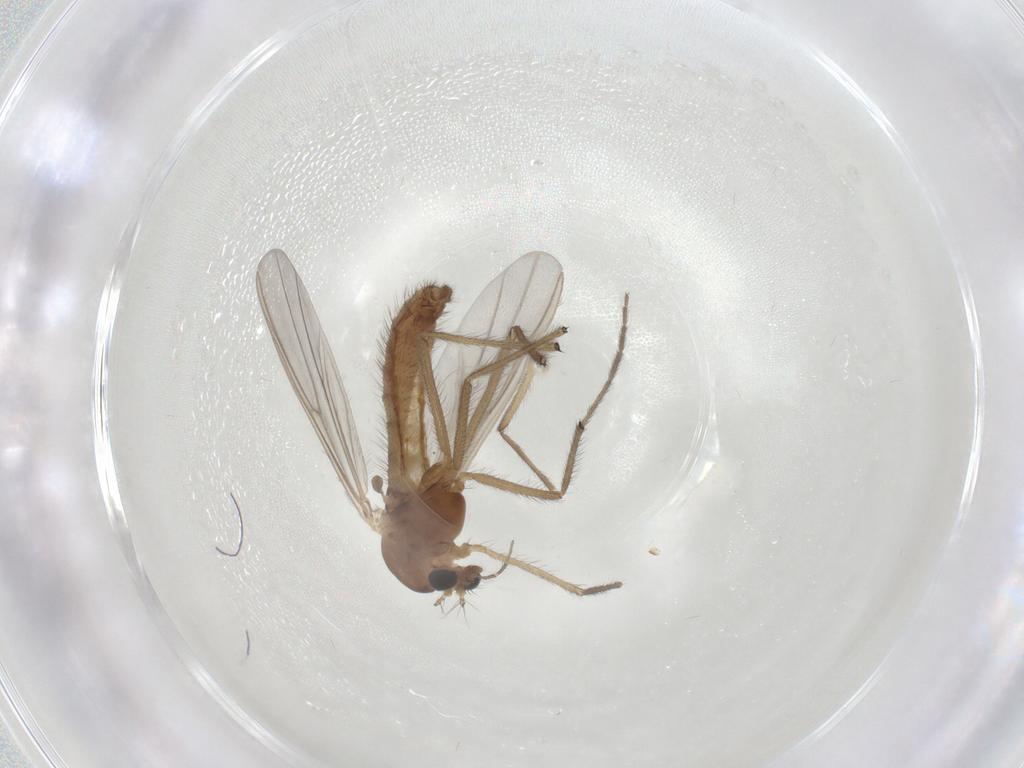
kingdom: Animalia
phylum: Arthropoda
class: Insecta
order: Diptera
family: Chironomidae
